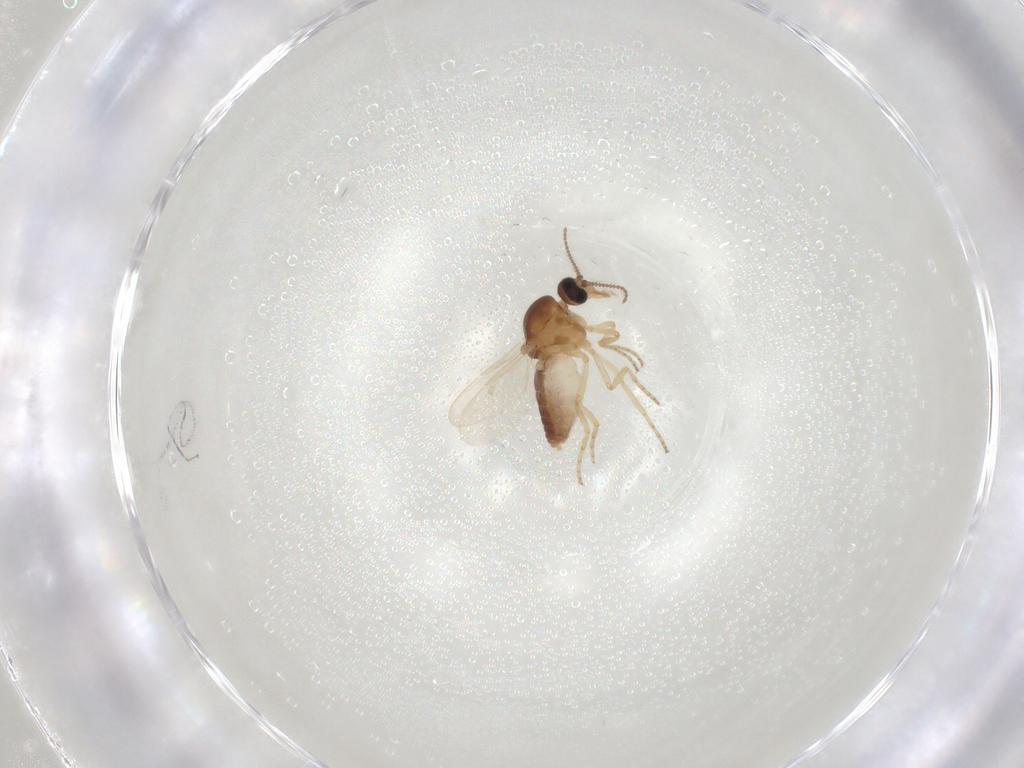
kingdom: Animalia
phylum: Arthropoda
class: Insecta
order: Diptera
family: Ceratopogonidae
